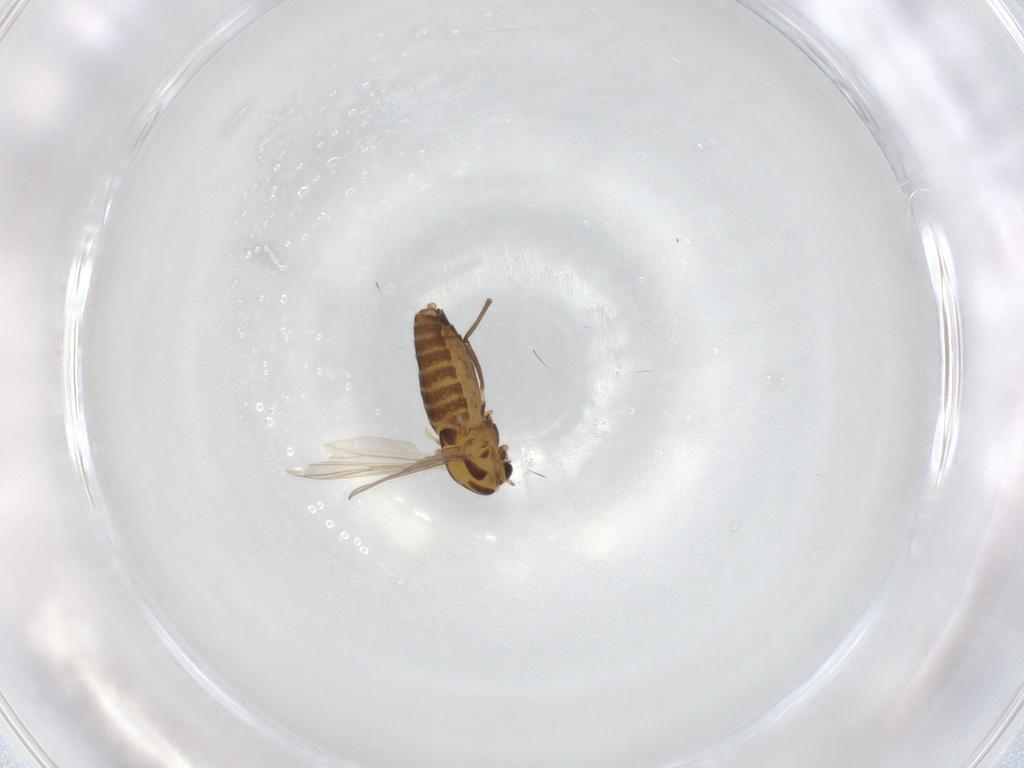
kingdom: Animalia
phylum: Arthropoda
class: Insecta
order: Diptera
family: Chironomidae
